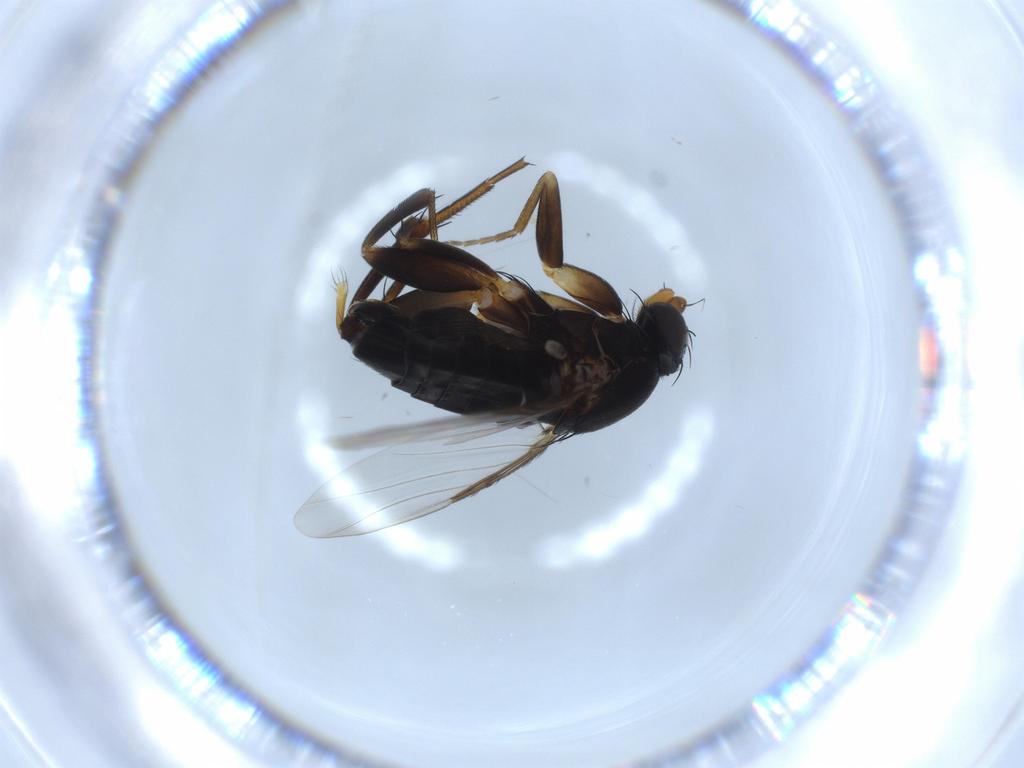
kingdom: Animalia
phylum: Arthropoda
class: Insecta
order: Diptera
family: Phoridae
